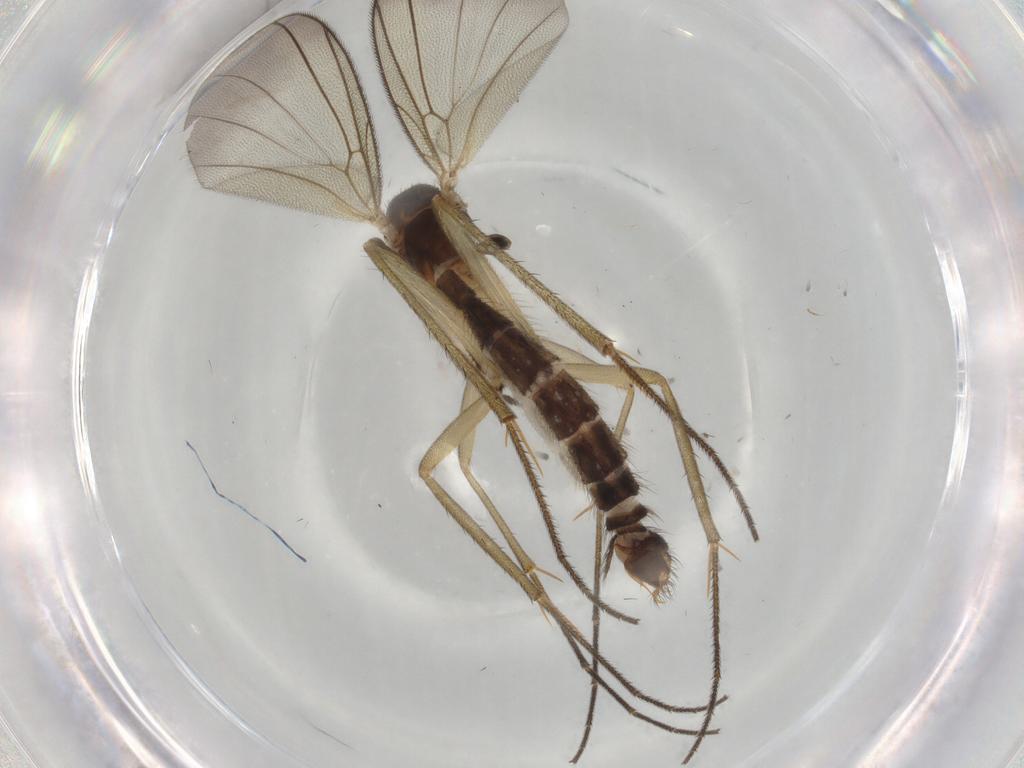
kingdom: Animalia
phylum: Arthropoda
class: Insecta
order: Diptera
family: Mycetophilidae
